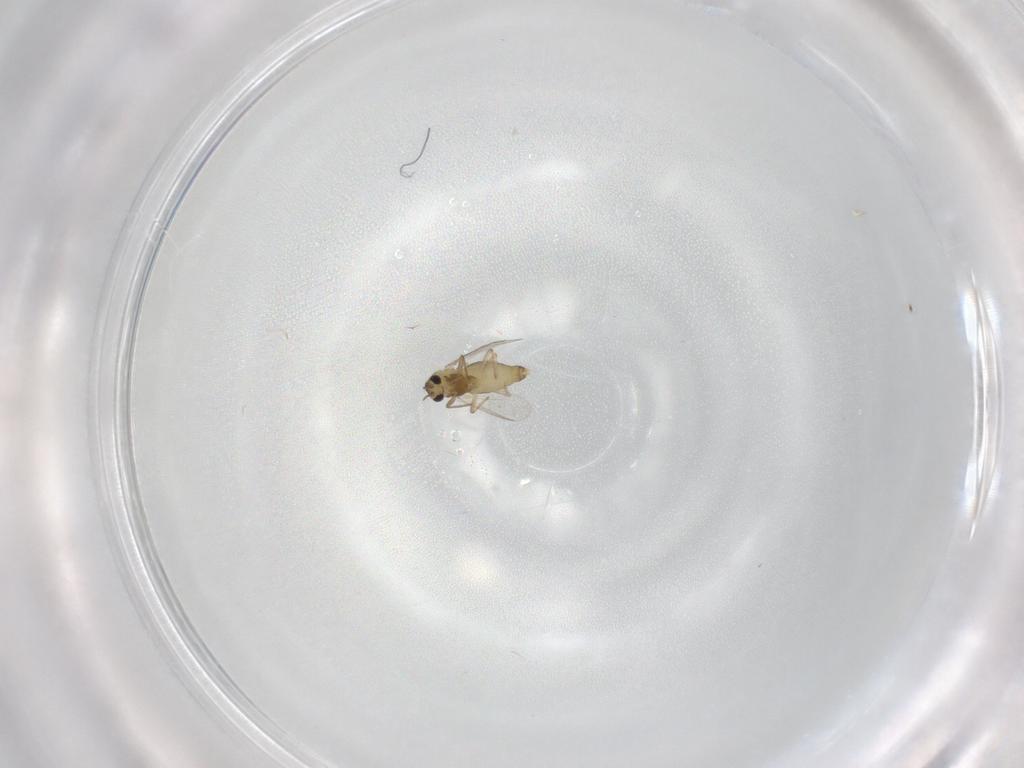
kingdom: Animalia
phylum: Arthropoda
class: Insecta
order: Diptera
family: Chironomidae
